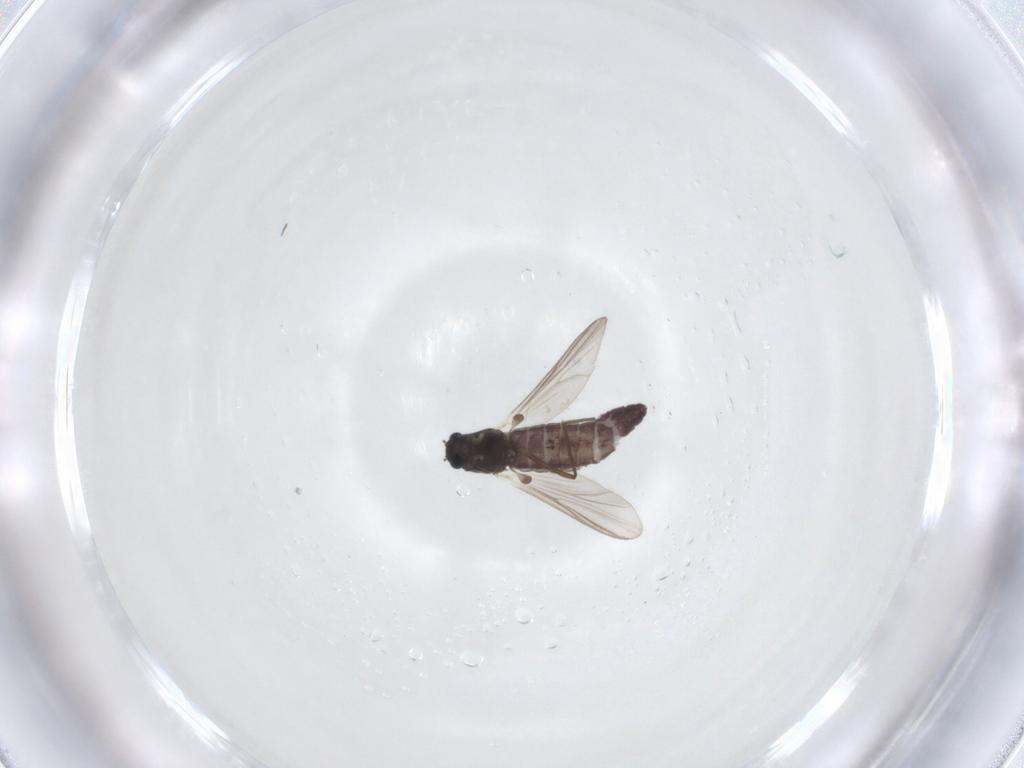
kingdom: Animalia
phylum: Arthropoda
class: Insecta
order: Diptera
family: Chironomidae
